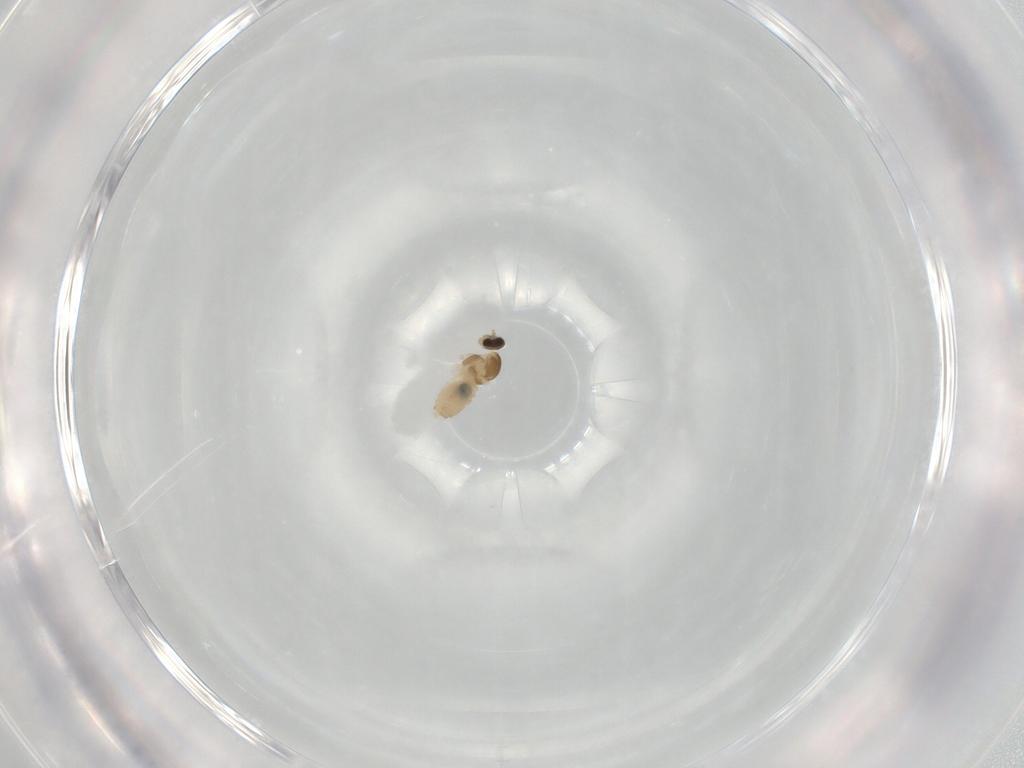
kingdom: Animalia
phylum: Arthropoda
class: Insecta
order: Diptera
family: Cecidomyiidae
